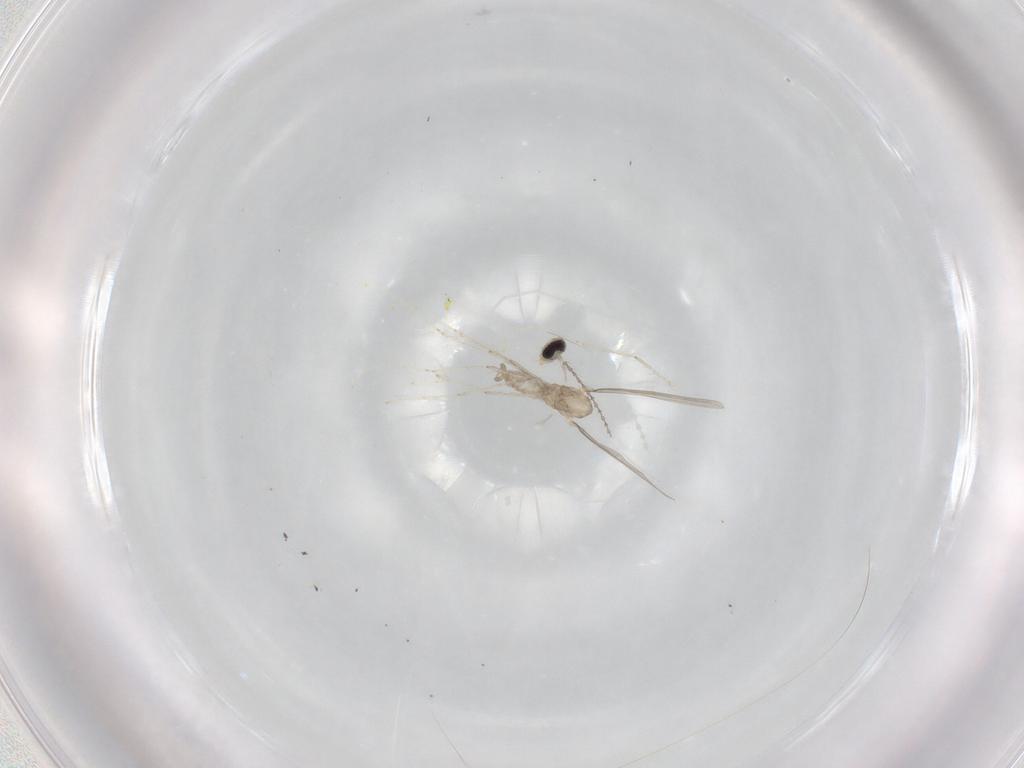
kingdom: Animalia
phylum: Arthropoda
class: Insecta
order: Diptera
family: Cecidomyiidae
